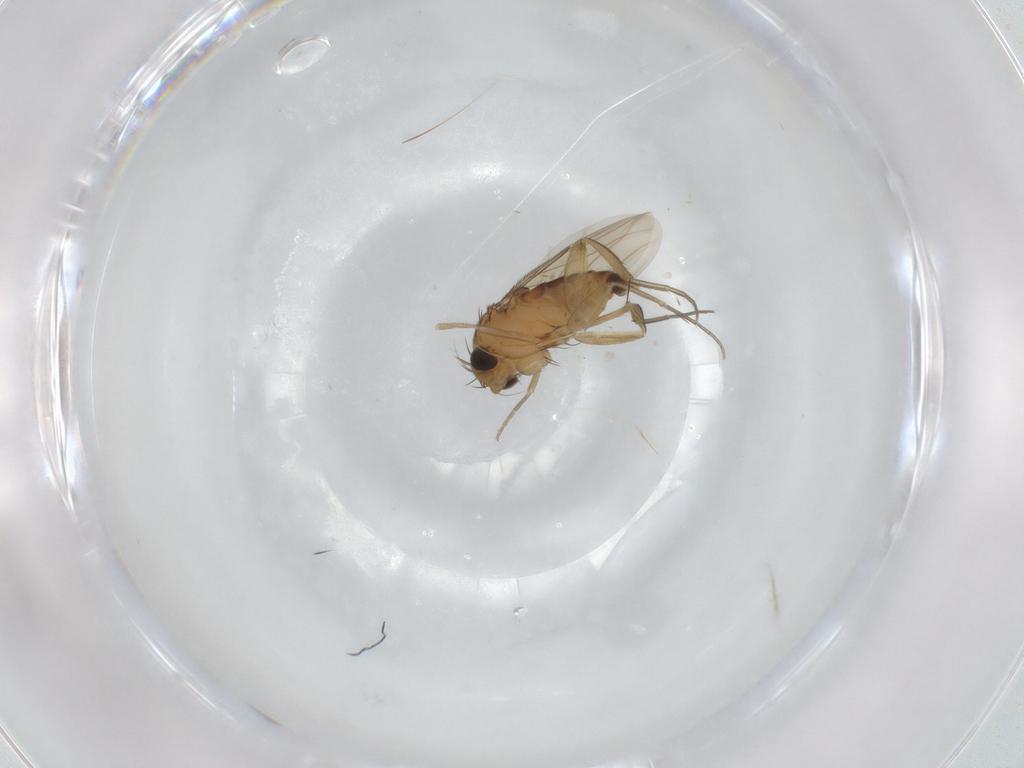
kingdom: Animalia
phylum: Arthropoda
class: Insecta
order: Diptera
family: Phoridae
